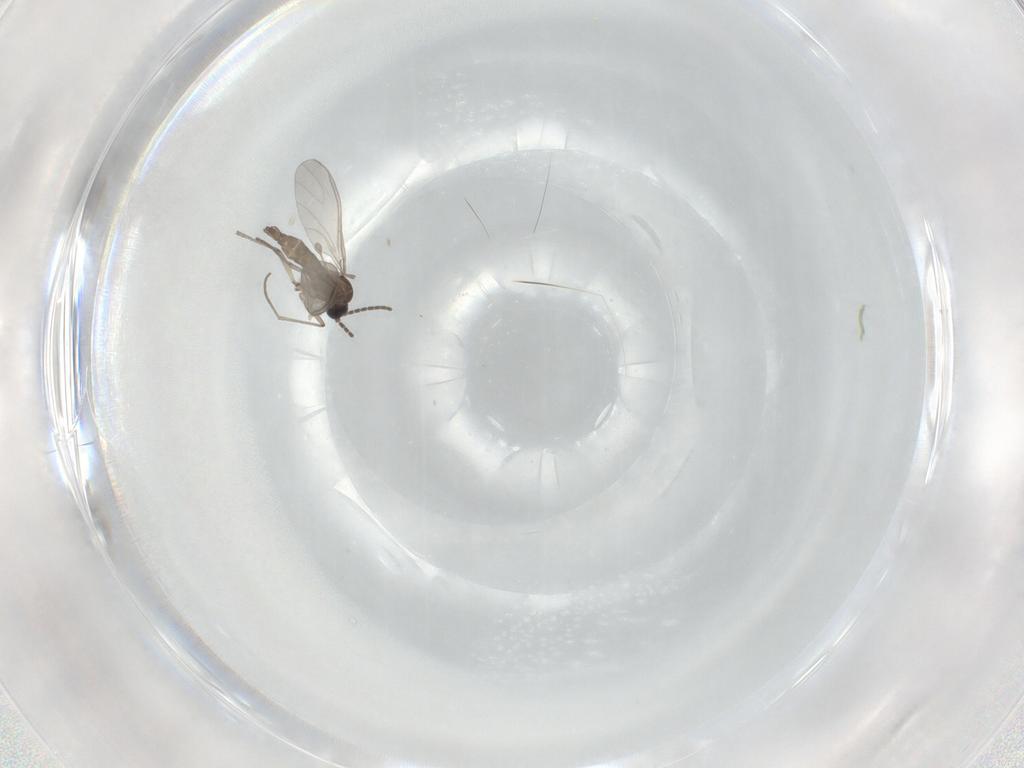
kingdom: Animalia
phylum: Arthropoda
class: Insecta
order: Diptera
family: Sciaridae
